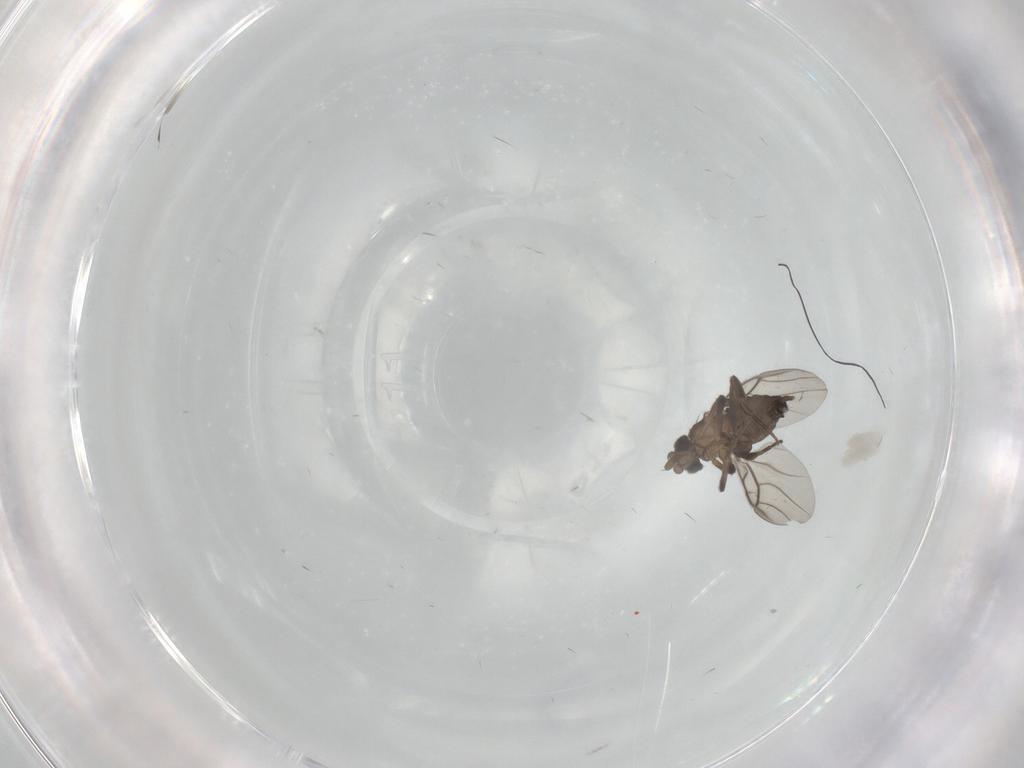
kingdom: Animalia
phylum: Arthropoda
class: Insecta
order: Diptera
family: Phoridae
